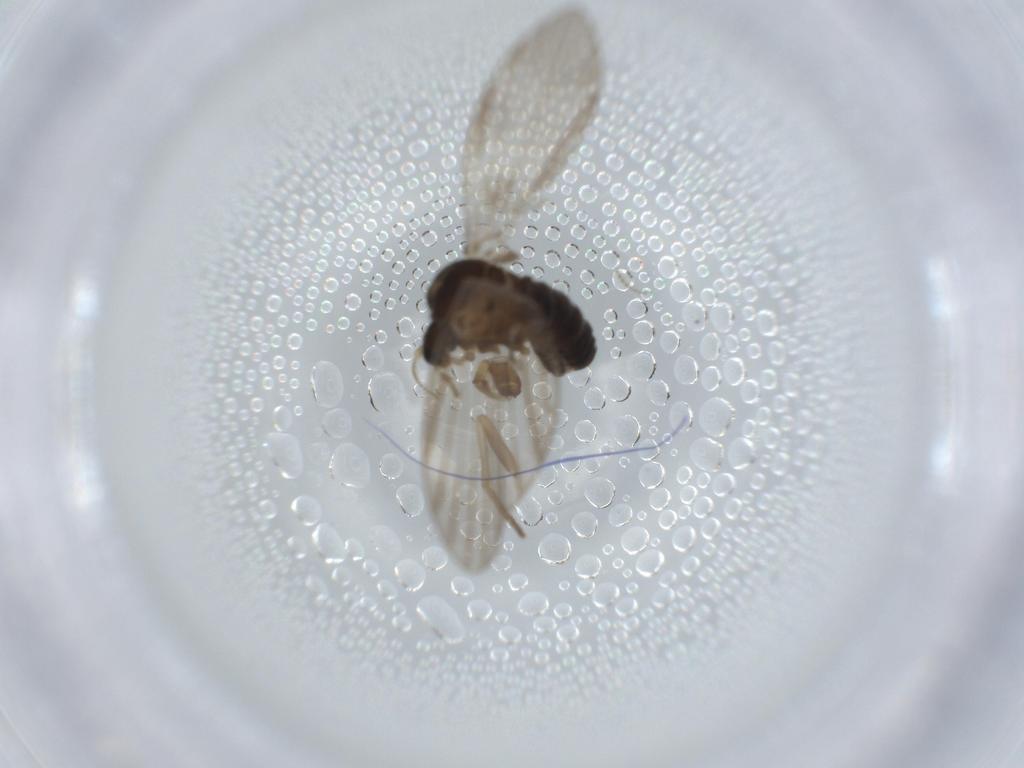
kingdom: Animalia
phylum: Arthropoda
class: Insecta
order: Diptera
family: Psychodidae
